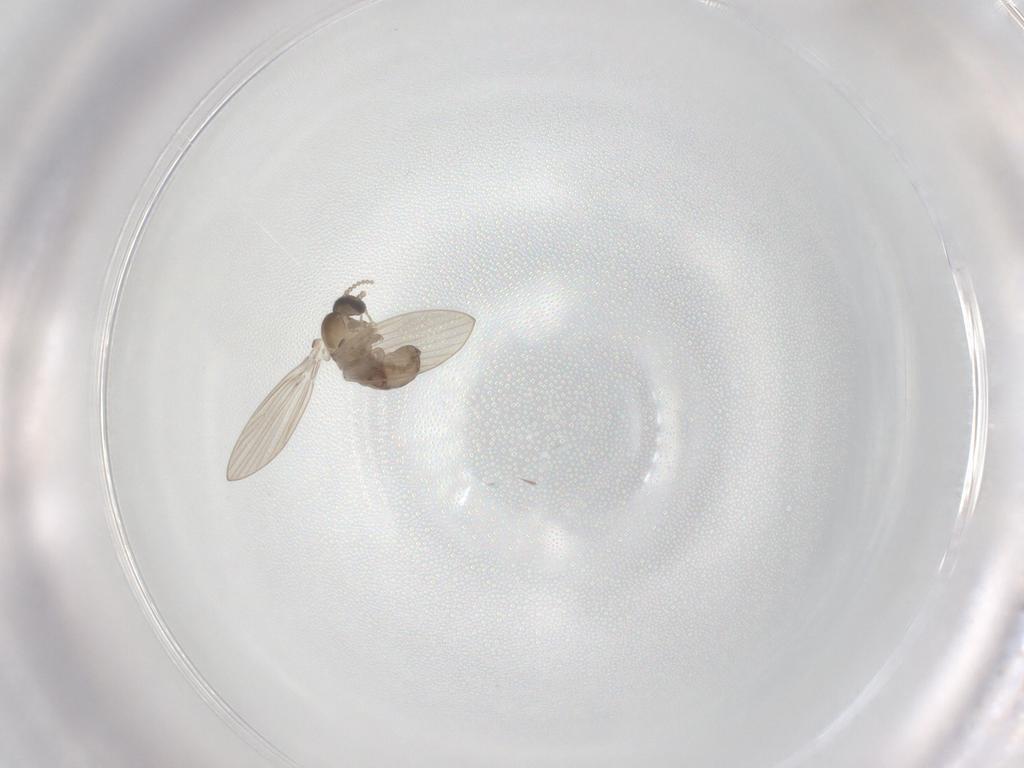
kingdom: Animalia
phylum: Arthropoda
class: Insecta
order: Diptera
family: Psychodidae
